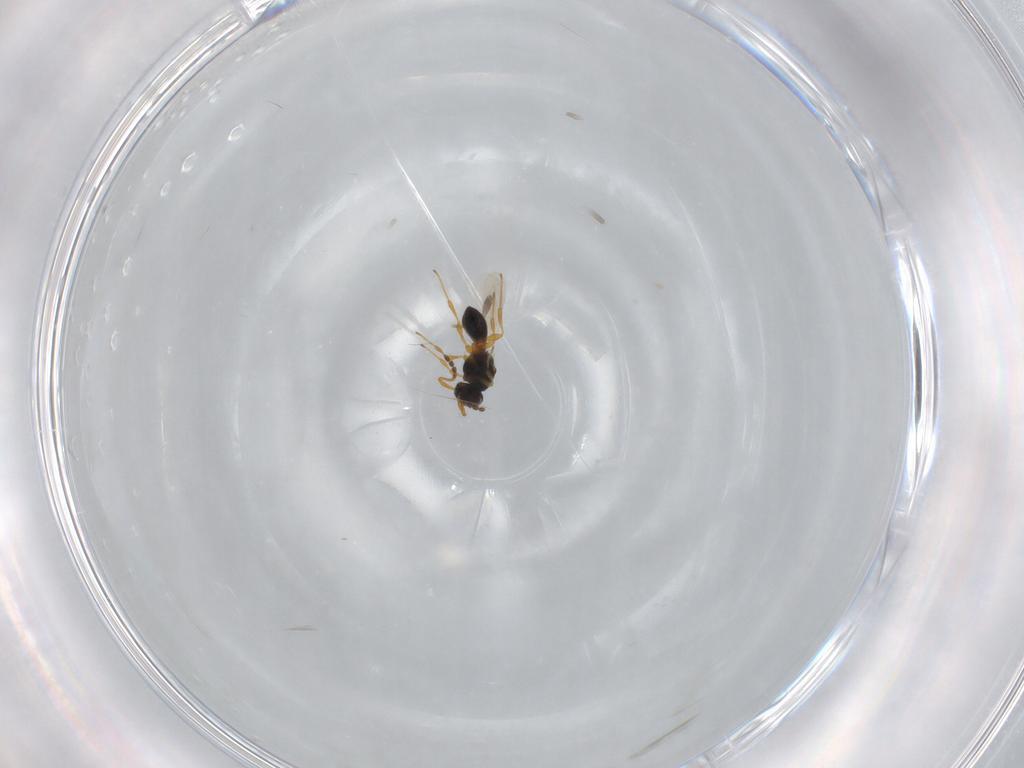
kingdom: Animalia
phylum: Arthropoda
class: Insecta
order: Hymenoptera
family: Platygastridae
